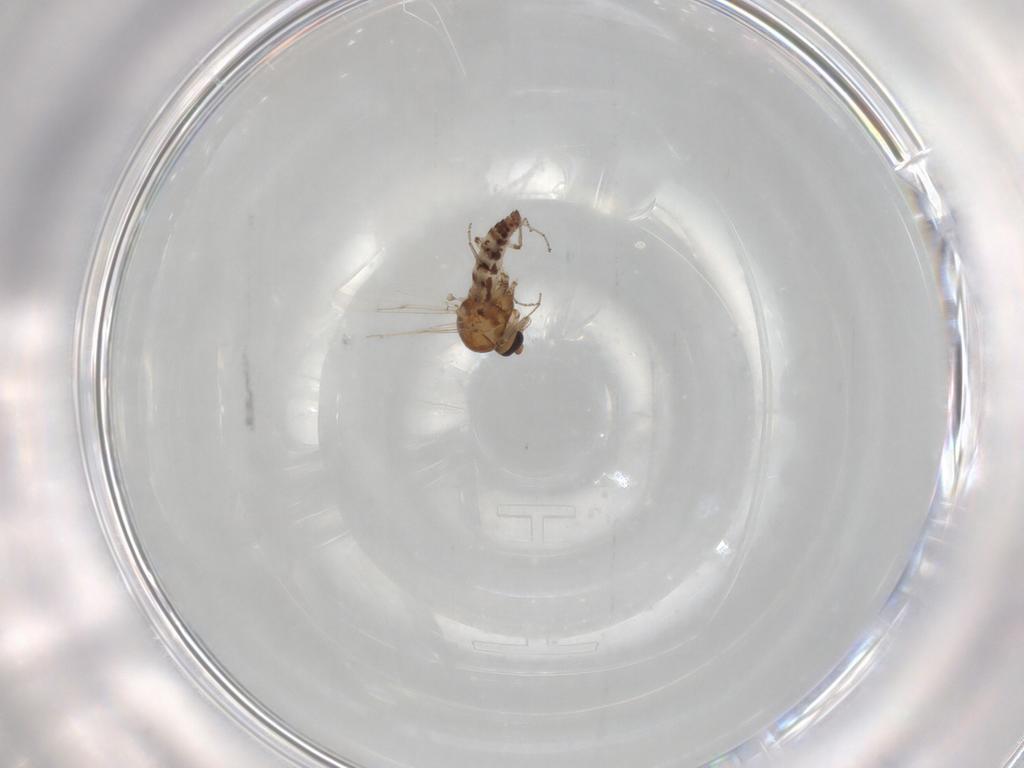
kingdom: Animalia
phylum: Arthropoda
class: Insecta
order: Diptera
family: Ceratopogonidae
